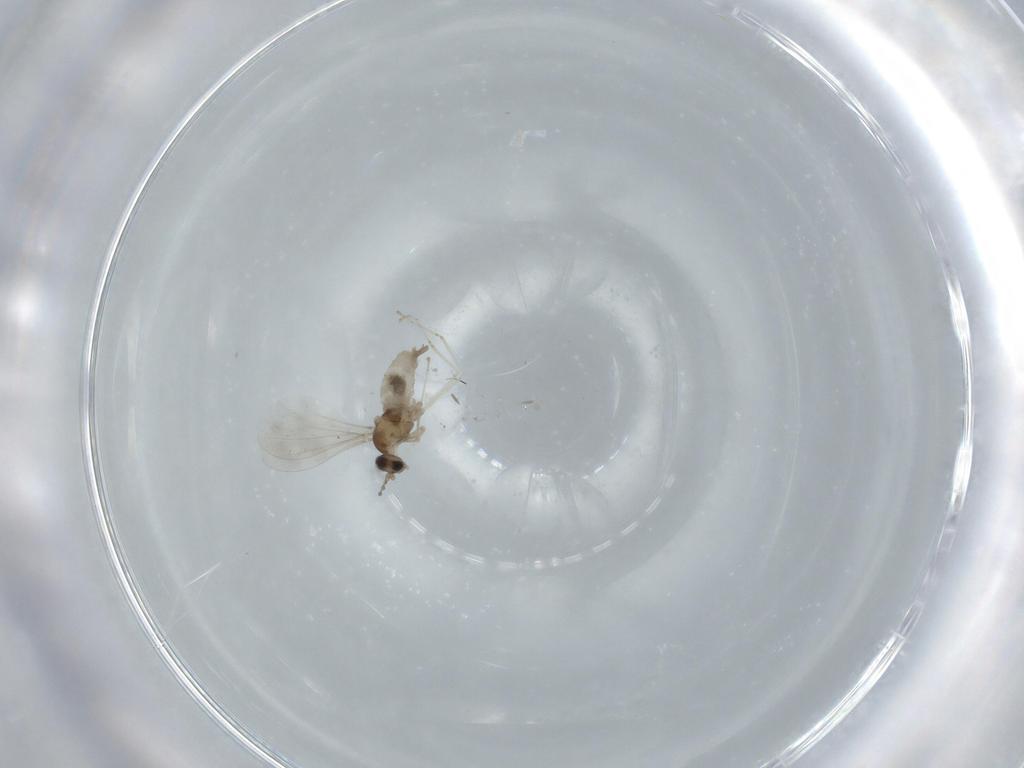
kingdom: Animalia
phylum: Arthropoda
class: Insecta
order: Diptera
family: Cecidomyiidae
